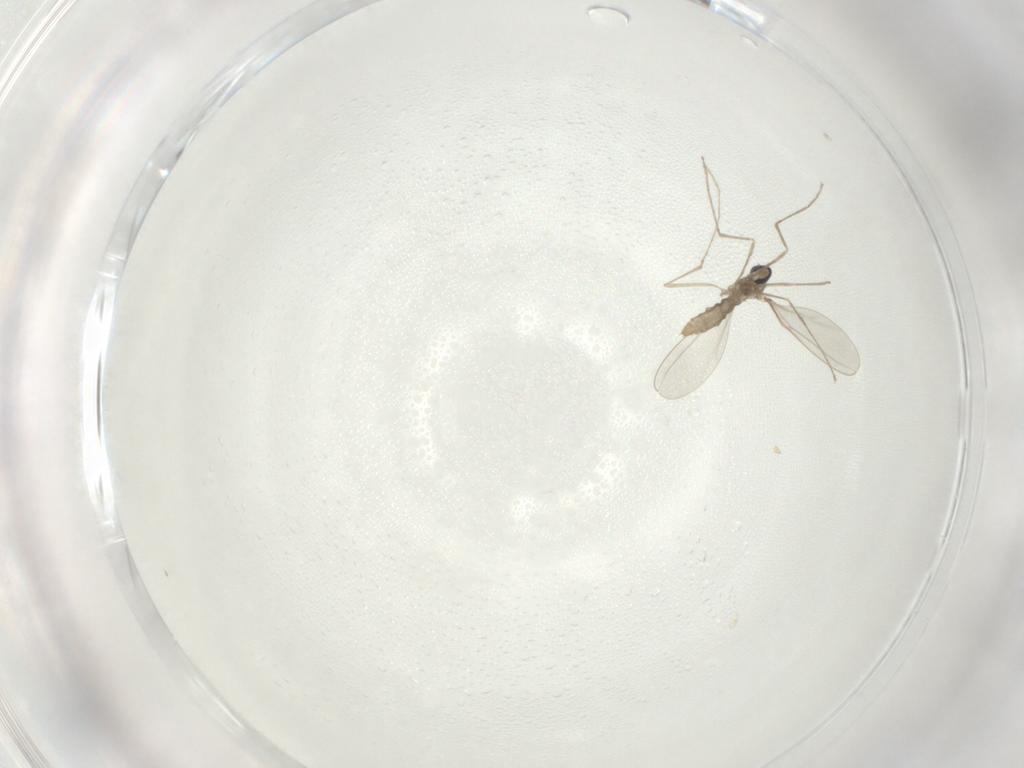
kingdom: Animalia
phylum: Arthropoda
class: Insecta
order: Diptera
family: Cecidomyiidae
